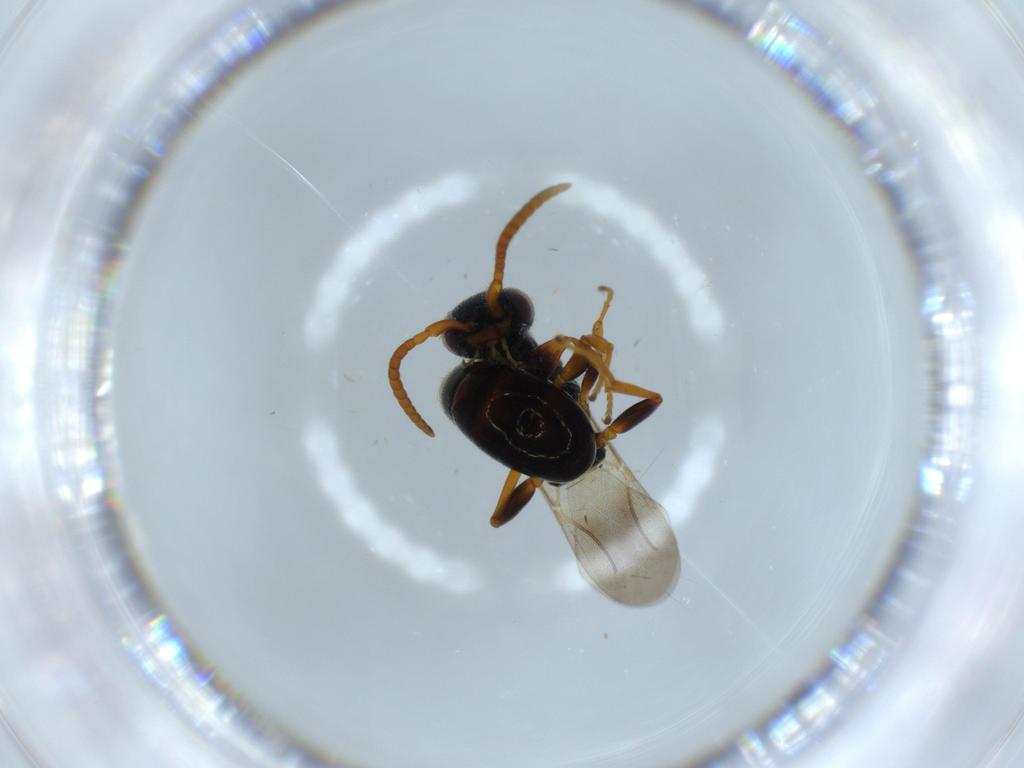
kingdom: Animalia
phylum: Arthropoda
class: Insecta
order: Hymenoptera
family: Bethylidae
